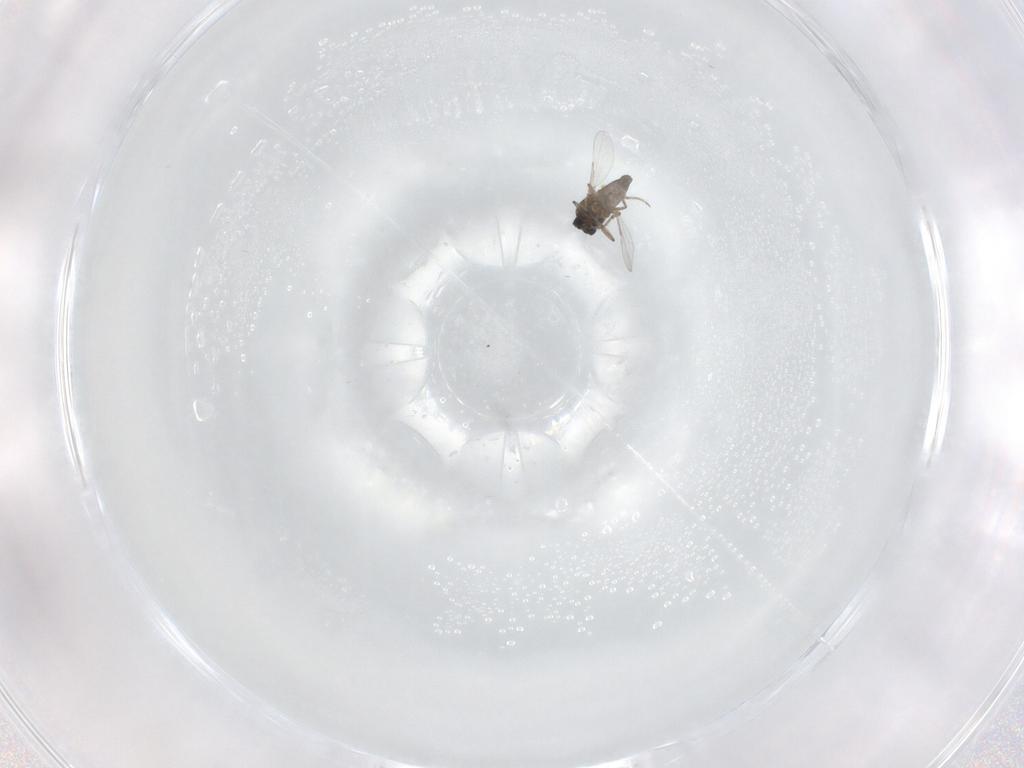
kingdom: Animalia
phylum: Arthropoda
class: Insecta
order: Diptera
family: Ceratopogonidae
